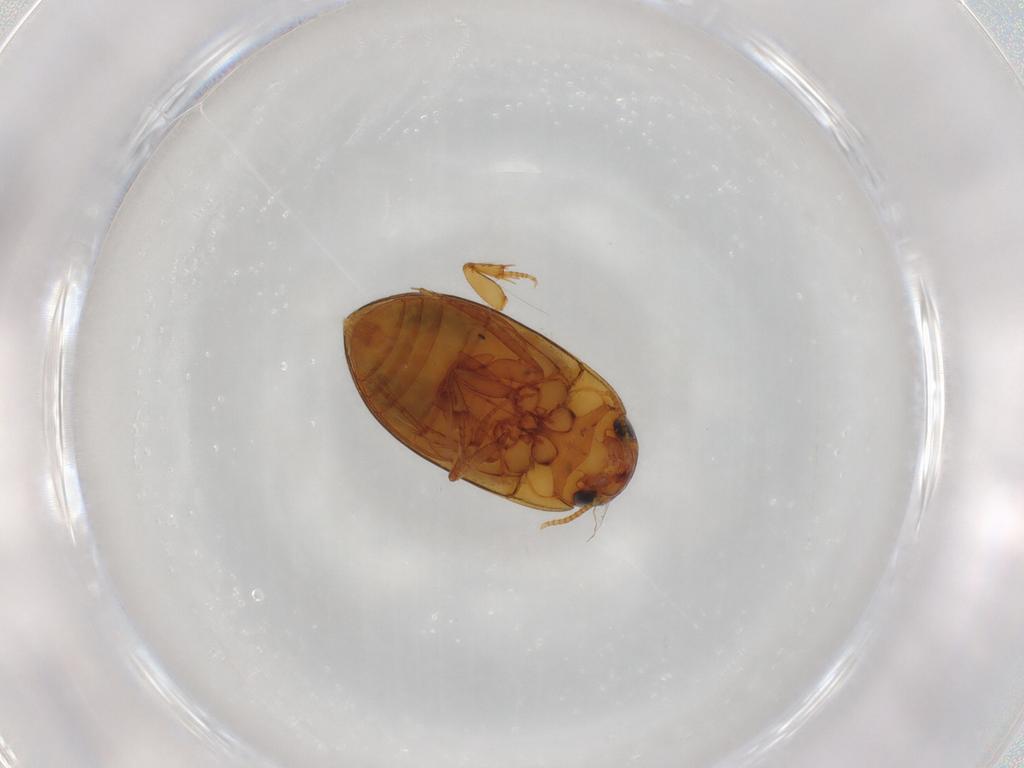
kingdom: Animalia
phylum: Arthropoda
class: Insecta
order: Coleoptera
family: Noteridae
